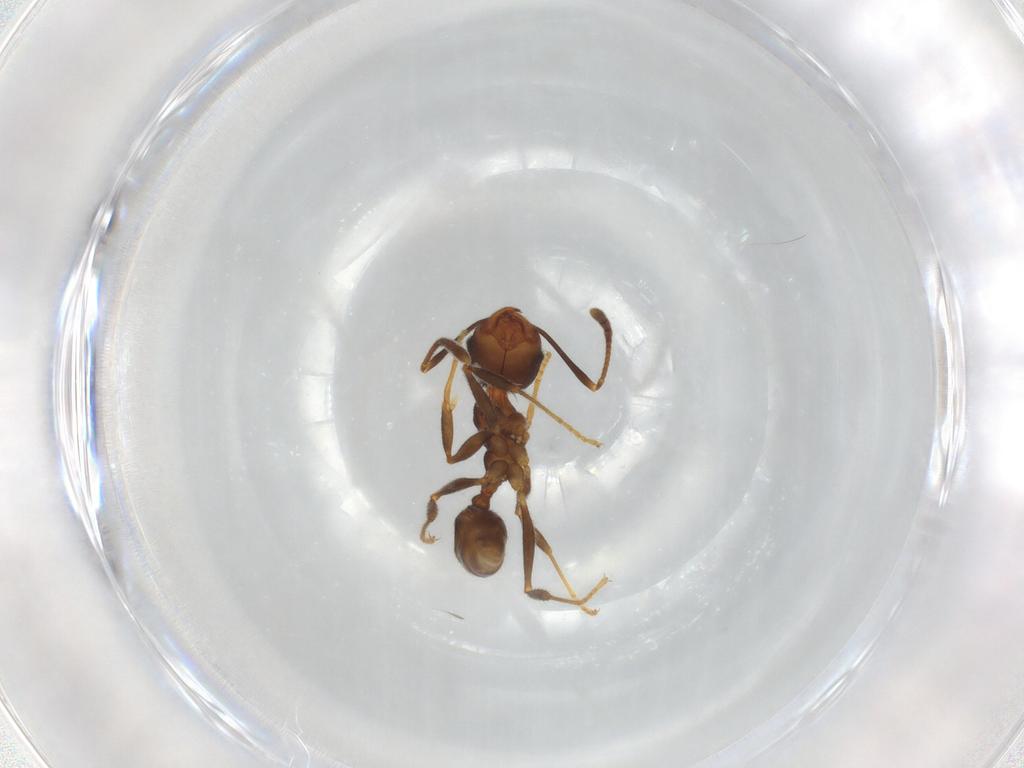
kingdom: Animalia
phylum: Arthropoda
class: Insecta
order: Hymenoptera
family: Formicidae
